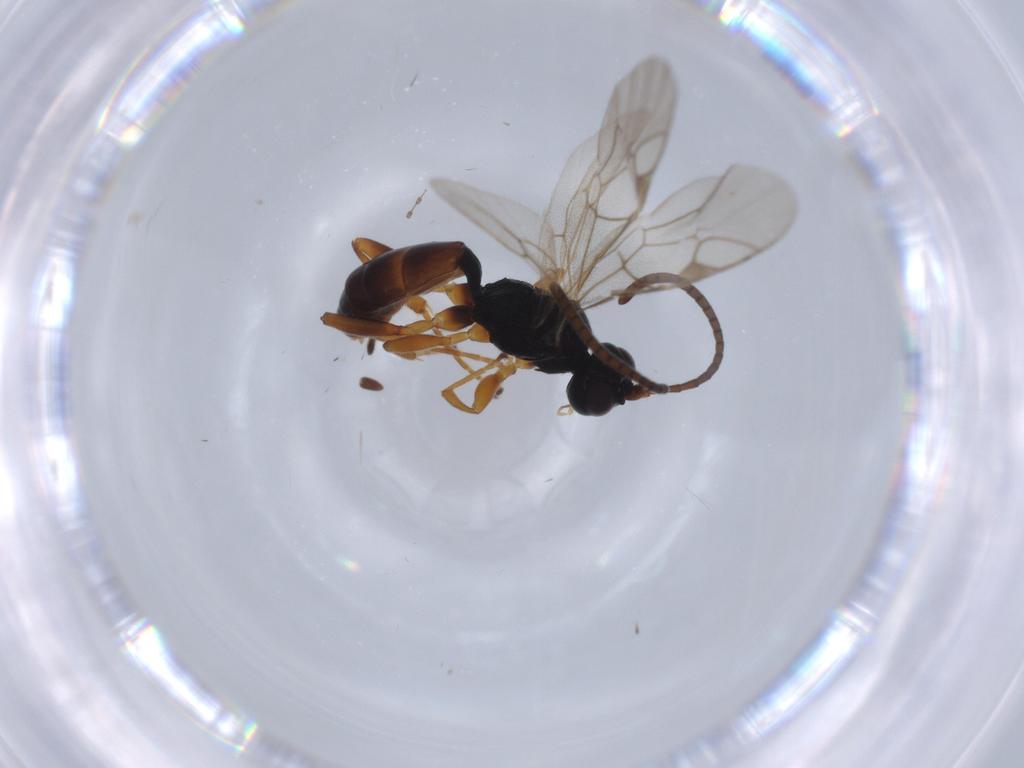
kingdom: Animalia
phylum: Arthropoda
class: Insecta
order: Hymenoptera
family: Ichneumonidae
